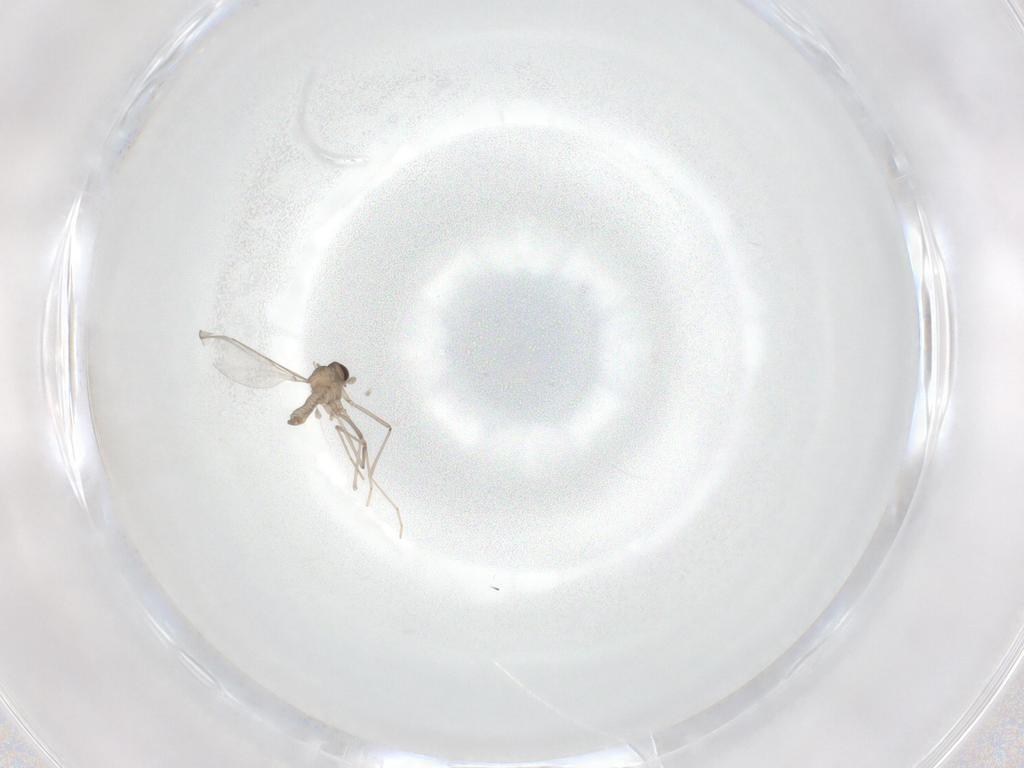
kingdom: Animalia
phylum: Arthropoda
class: Insecta
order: Diptera
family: Cecidomyiidae
